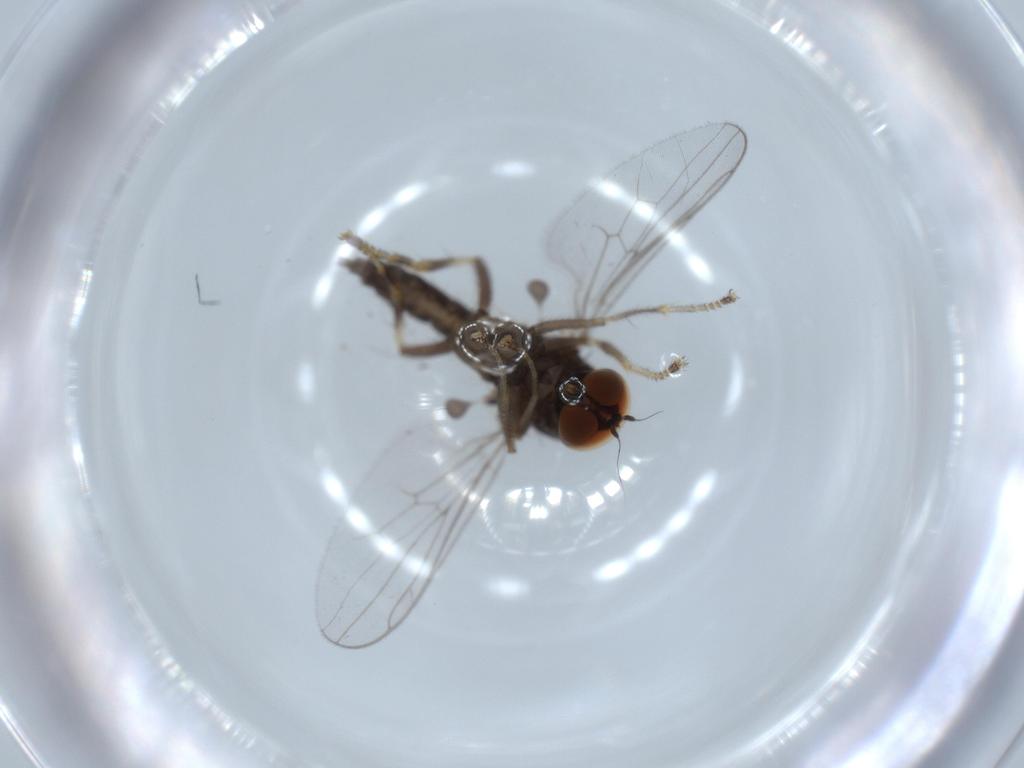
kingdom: Animalia
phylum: Arthropoda
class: Insecta
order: Diptera
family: Hybotidae
